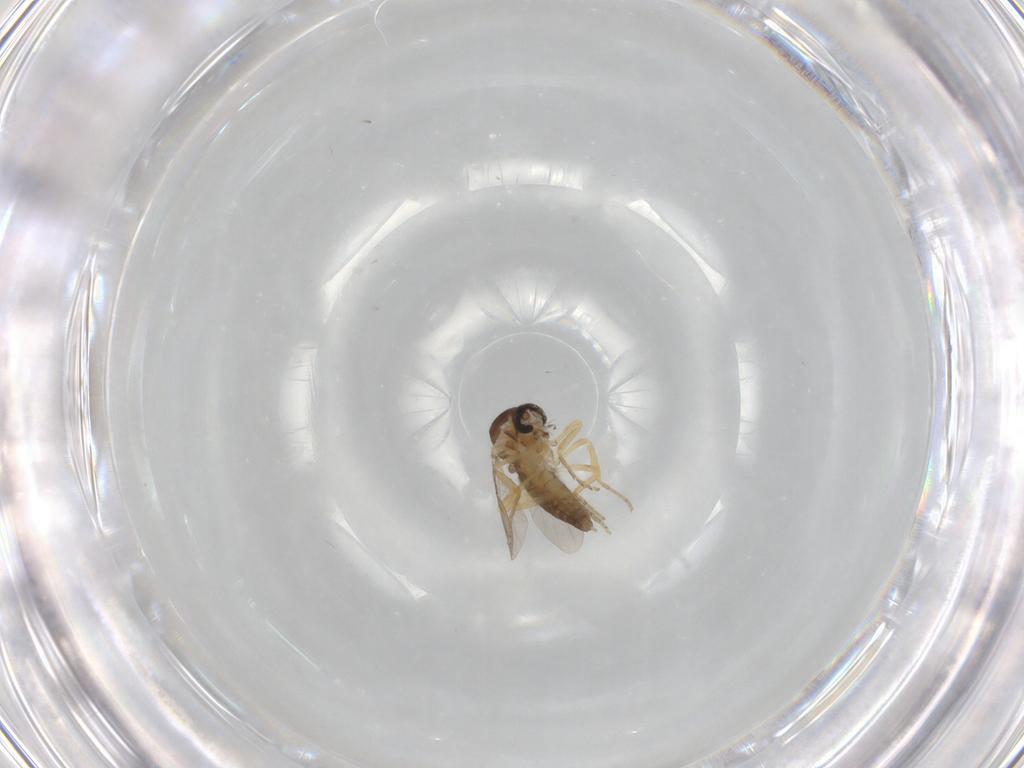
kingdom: Animalia
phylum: Arthropoda
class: Insecta
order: Diptera
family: Ceratopogonidae
